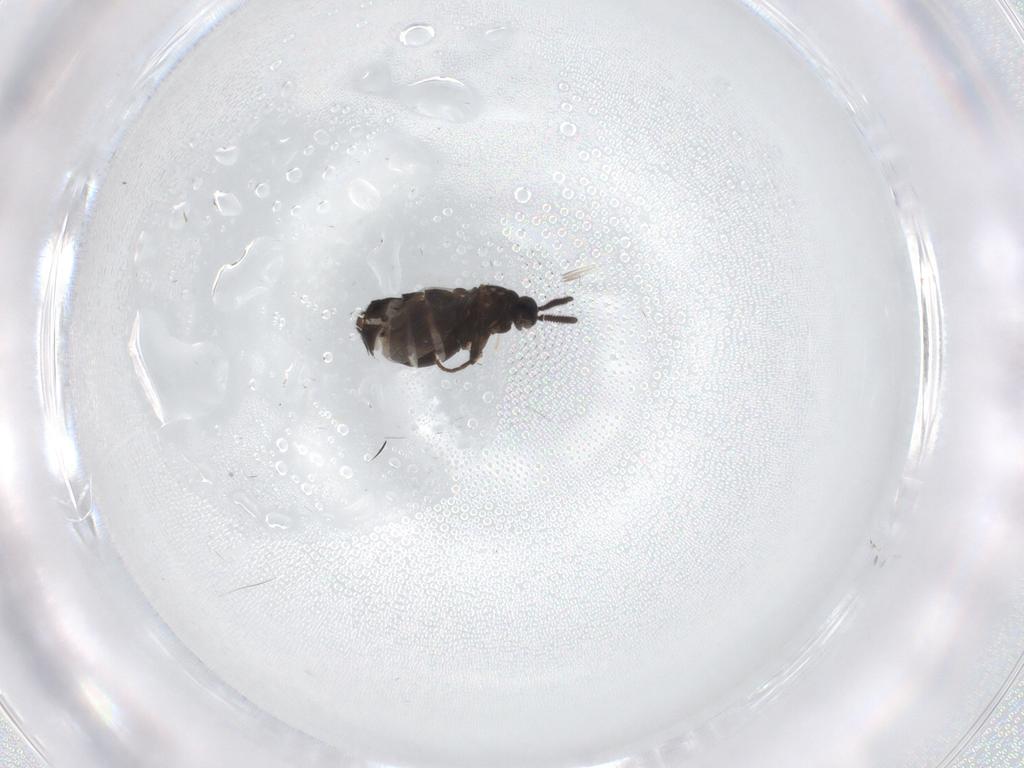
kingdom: Animalia
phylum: Arthropoda
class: Insecta
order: Diptera
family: Scatopsidae
